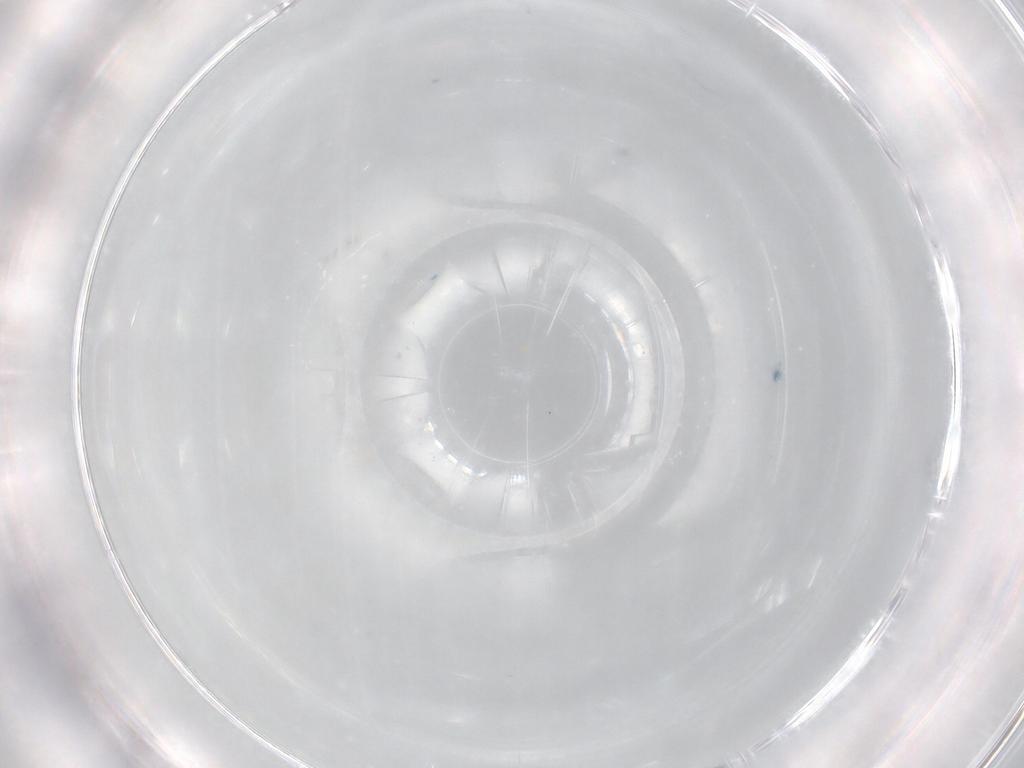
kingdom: Animalia
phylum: Arthropoda
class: Insecta
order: Diptera
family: Chironomidae
